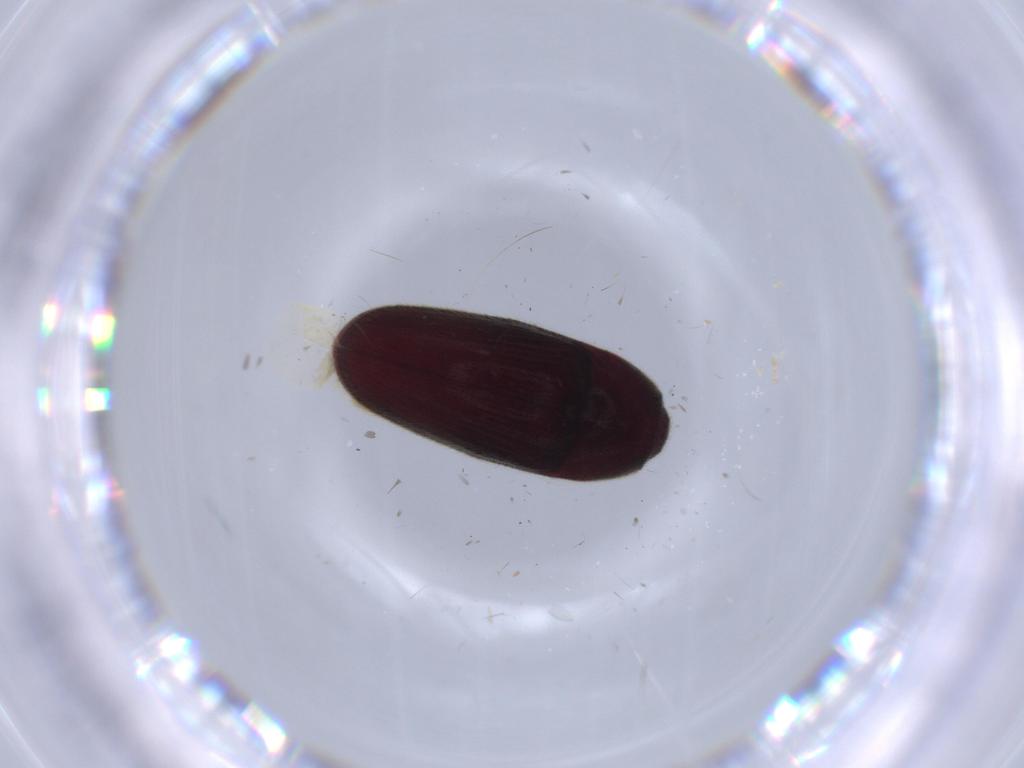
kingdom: Animalia
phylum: Arthropoda
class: Insecta
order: Coleoptera
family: Throscidae
